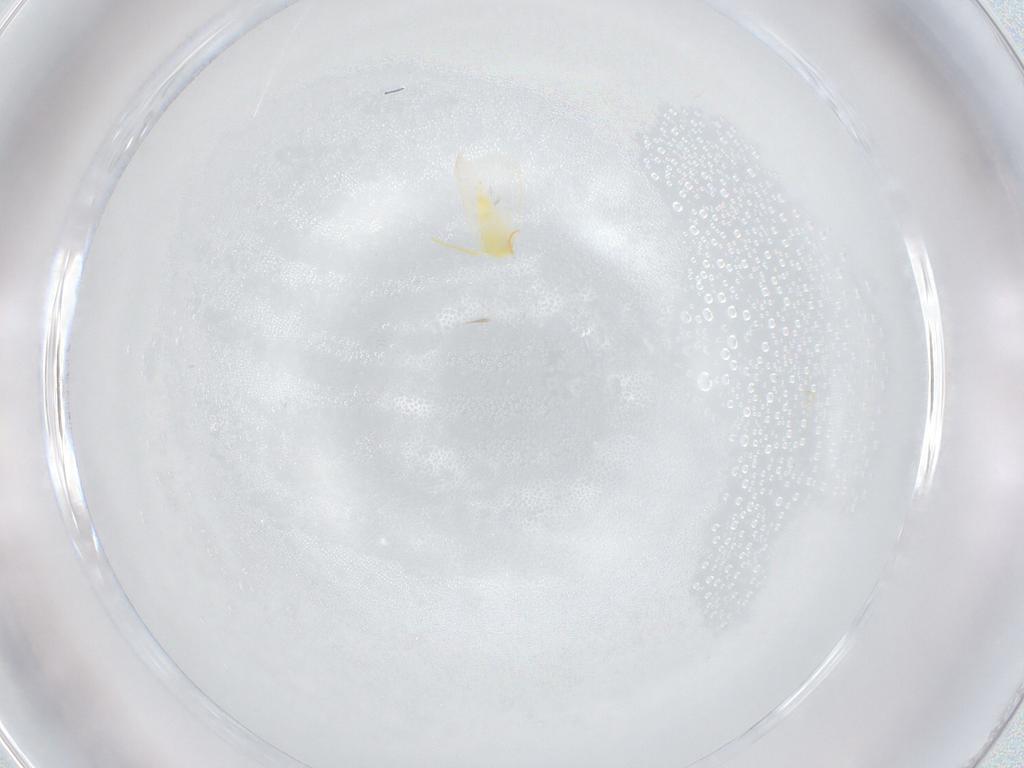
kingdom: Animalia
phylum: Arthropoda
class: Insecta
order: Hemiptera
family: Aleyrodidae
